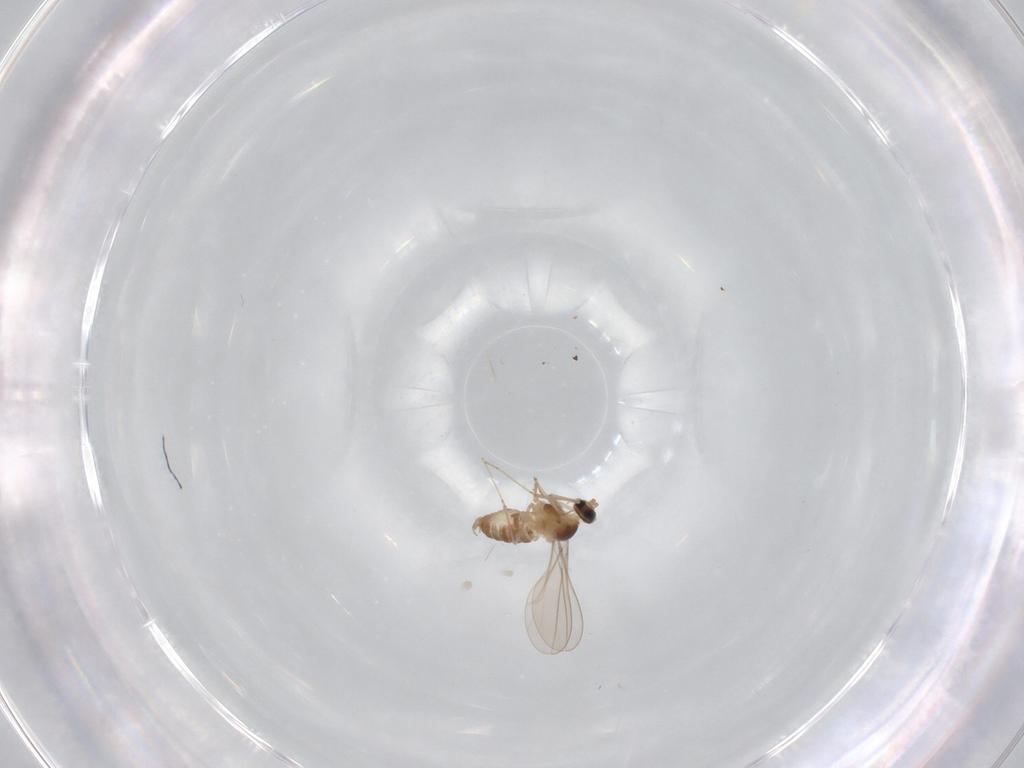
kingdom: Animalia
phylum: Arthropoda
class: Insecta
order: Diptera
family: Cecidomyiidae
